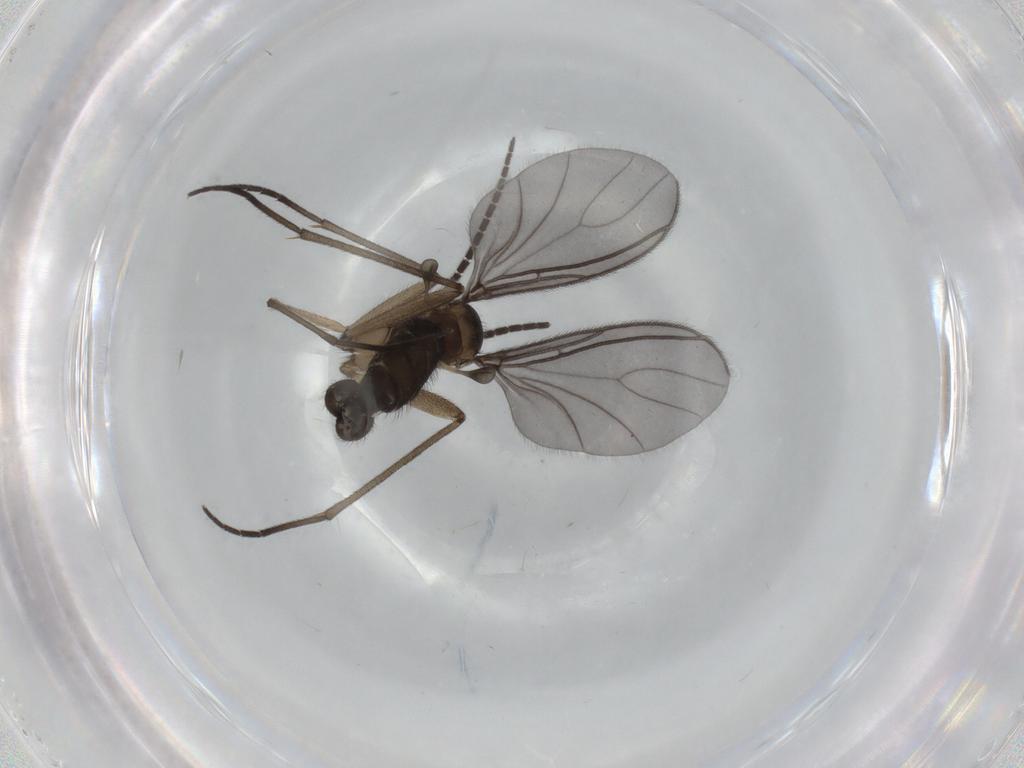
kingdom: Animalia
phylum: Arthropoda
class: Insecta
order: Diptera
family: Sciaridae
